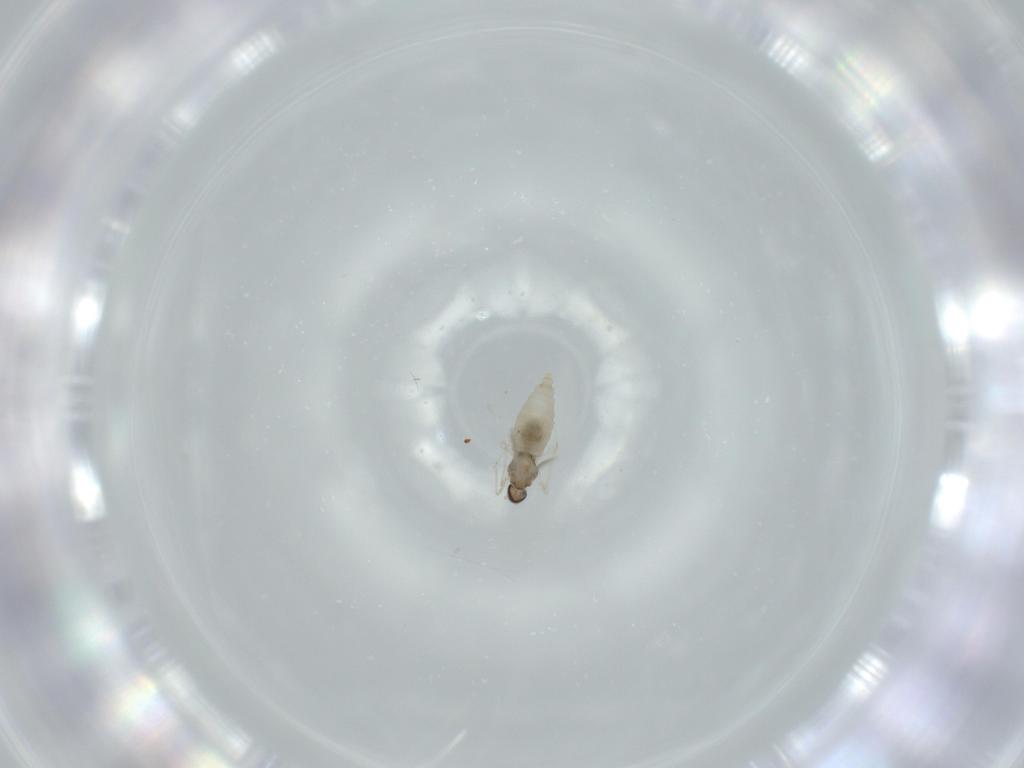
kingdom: Animalia
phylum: Arthropoda
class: Insecta
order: Diptera
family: Cecidomyiidae
